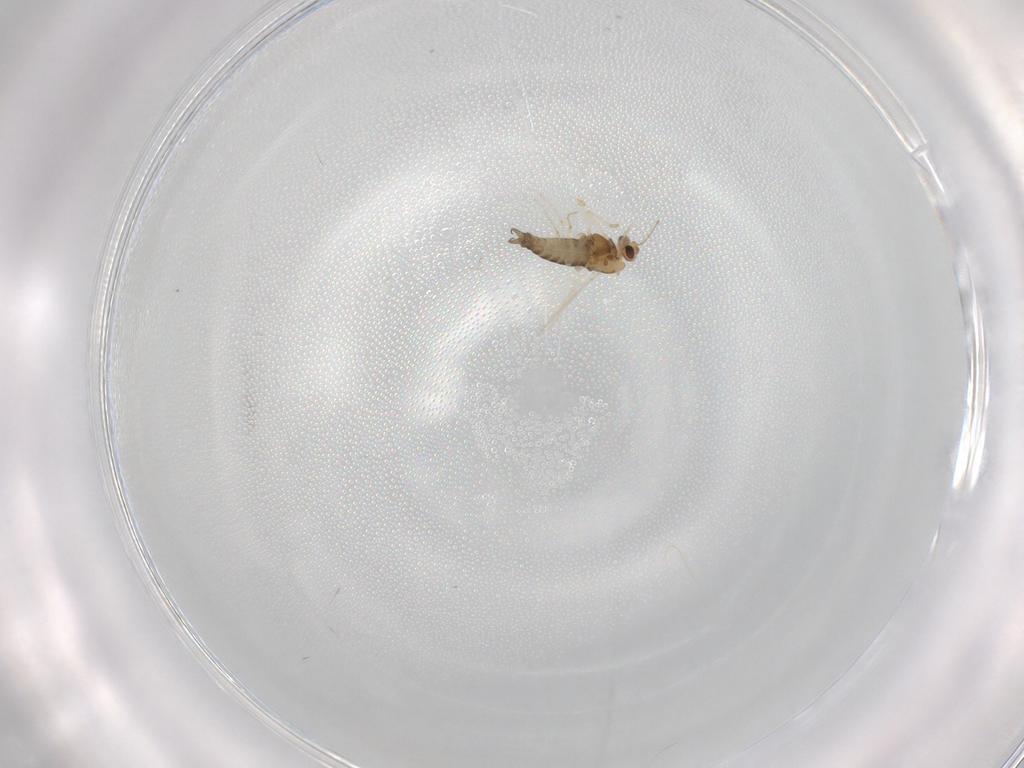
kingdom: Animalia
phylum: Arthropoda
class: Insecta
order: Diptera
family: Chironomidae
